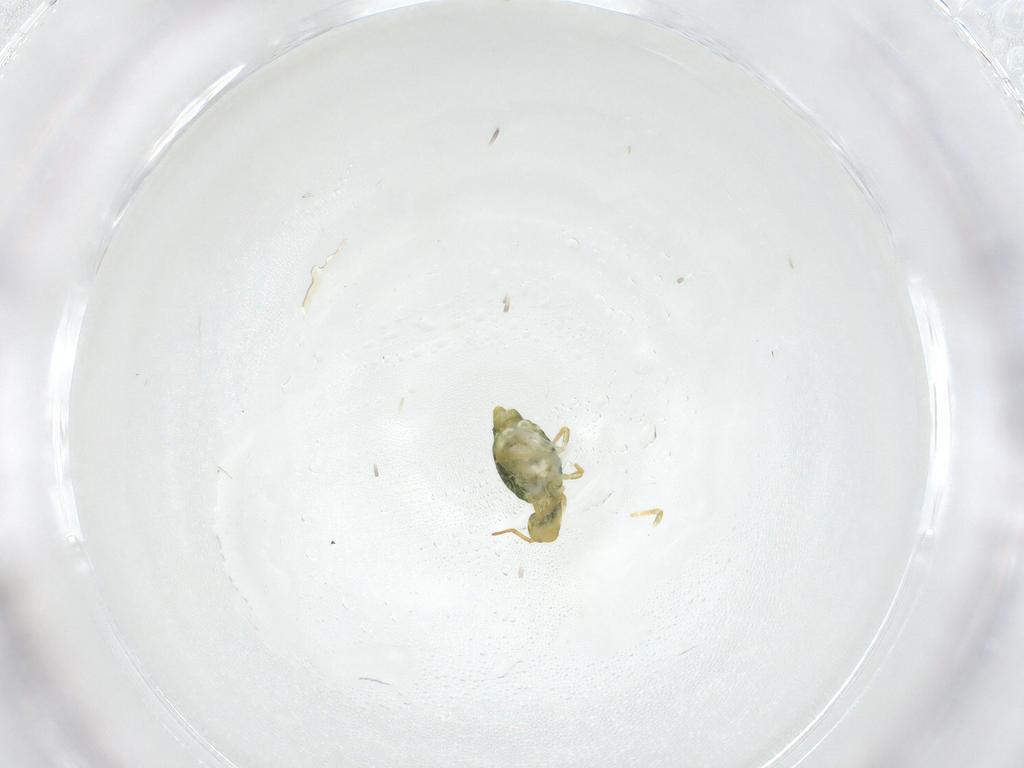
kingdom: Animalia
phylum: Arthropoda
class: Collembola
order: Symphypleona
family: Katiannidae
